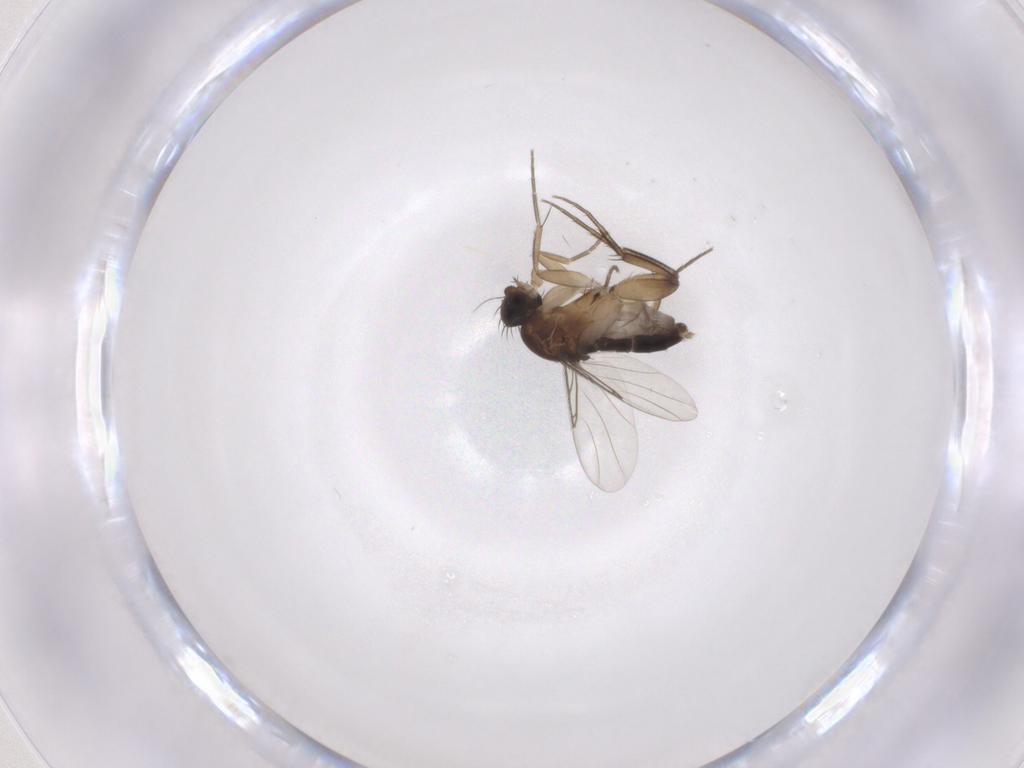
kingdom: Animalia
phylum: Arthropoda
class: Insecta
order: Diptera
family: Phoridae
